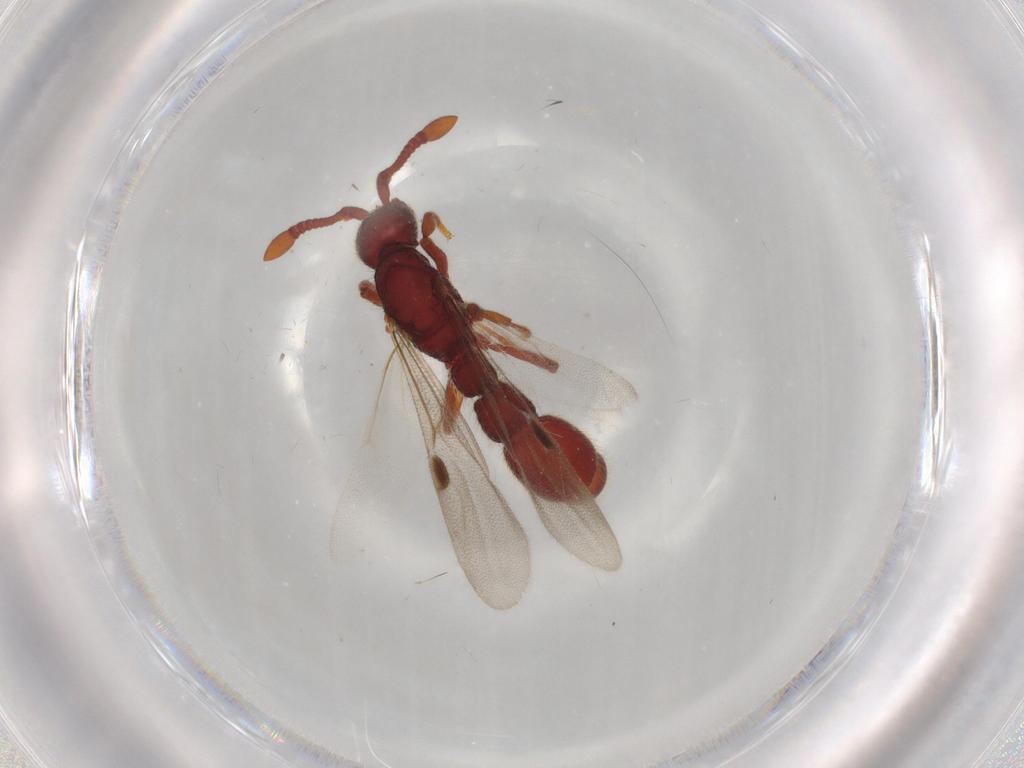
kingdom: Animalia
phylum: Arthropoda
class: Insecta
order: Hymenoptera
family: Formicidae
